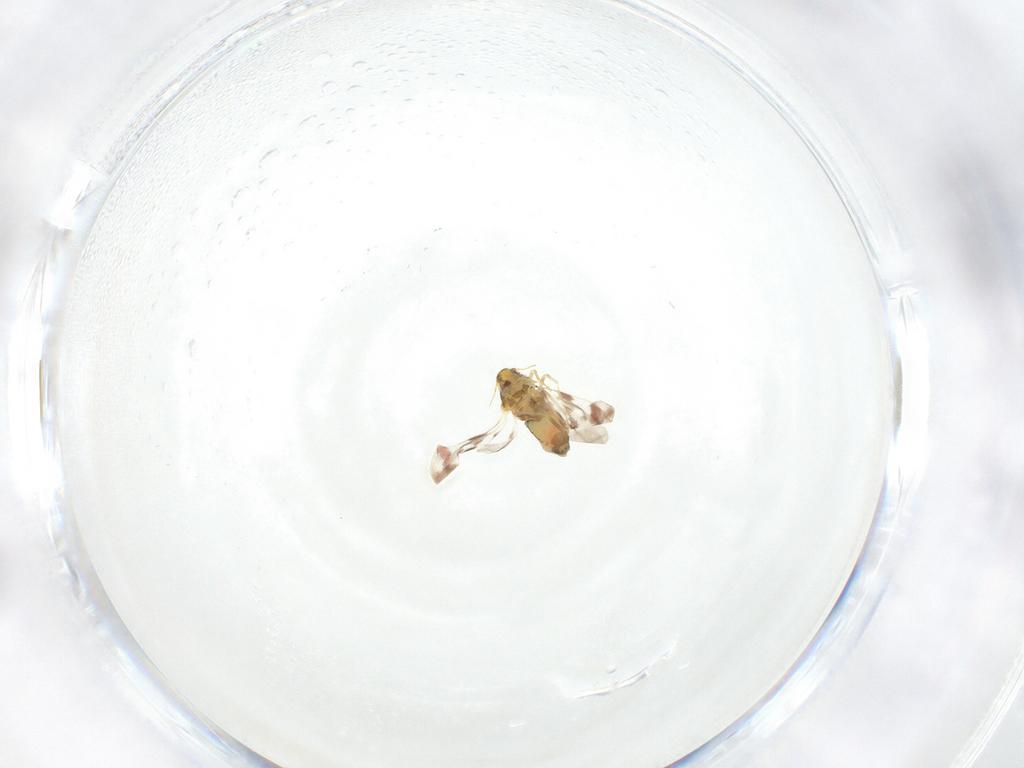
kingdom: Animalia
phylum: Arthropoda
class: Insecta
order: Hemiptera
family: Aleyrodidae
